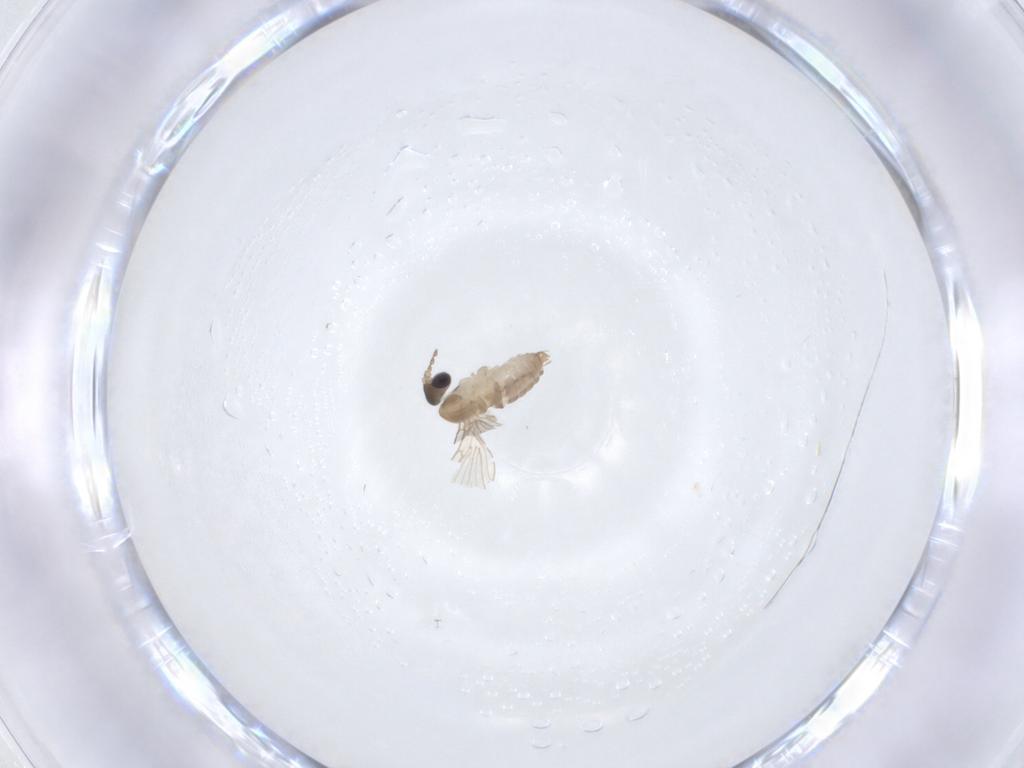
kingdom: Animalia
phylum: Arthropoda
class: Insecta
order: Diptera
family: Psychodidae
